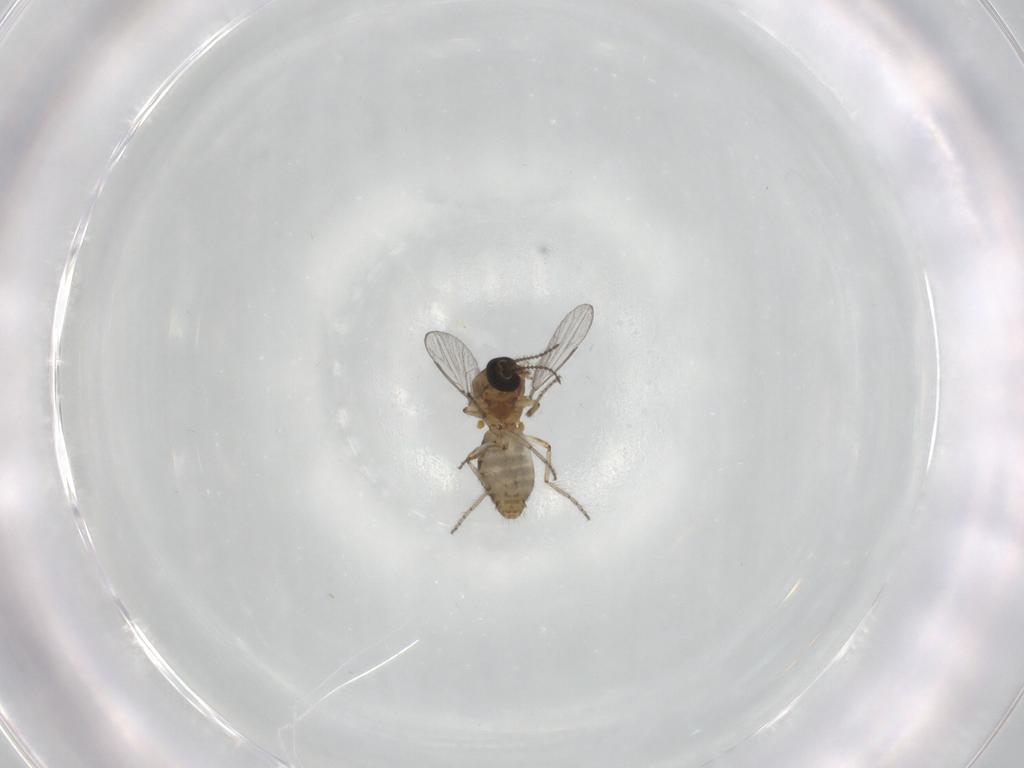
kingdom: Animalia
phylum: Arthropoda
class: Insecta
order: Diptera
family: Ceratopogonidae
